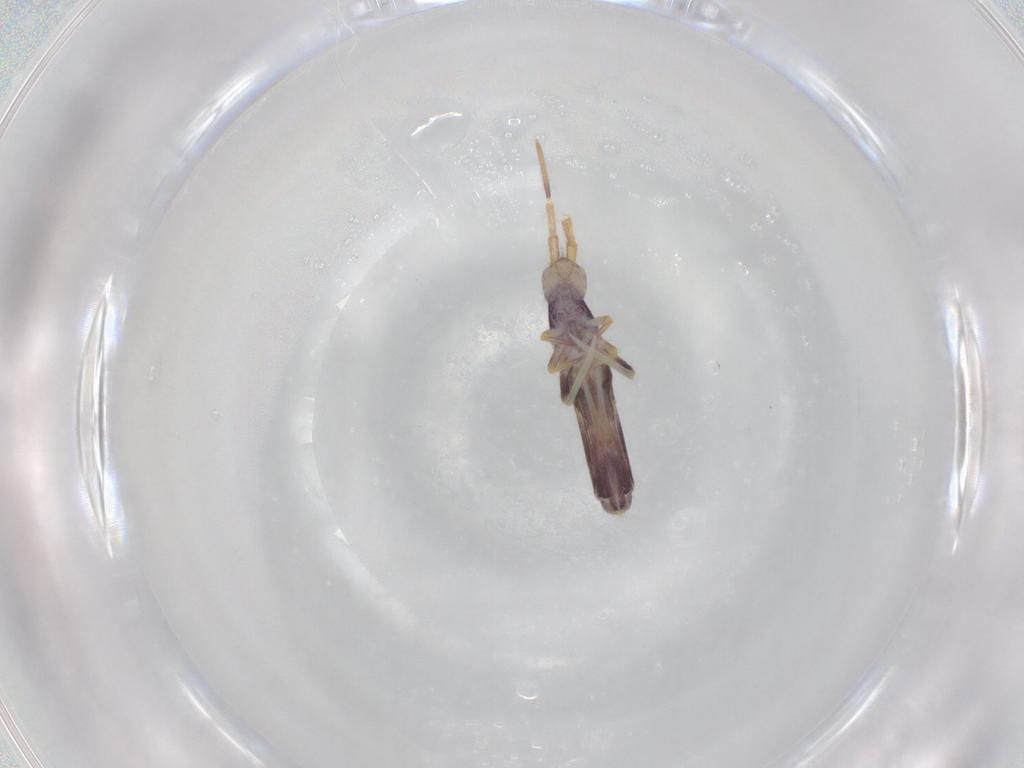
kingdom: Animalia
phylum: Arthropoda
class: Collembola
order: Entomobryomorpha
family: Entomobryidae
